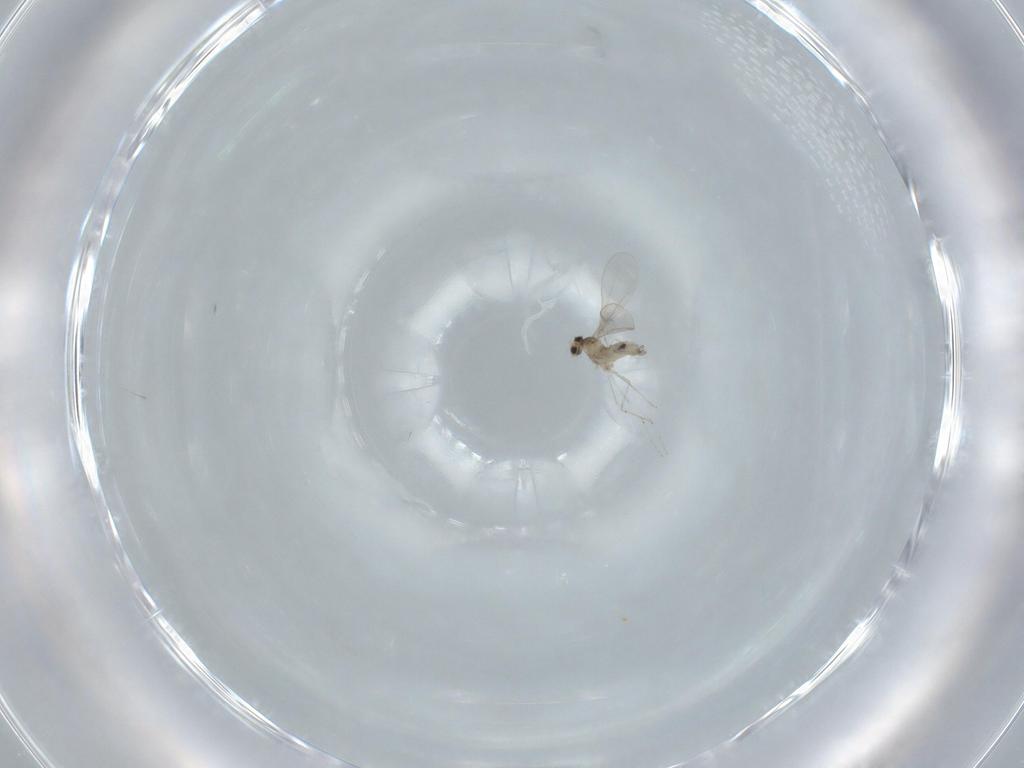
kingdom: Animalia
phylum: Arthropoda
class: Insecta
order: Diptera
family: Cecidomyiidae
